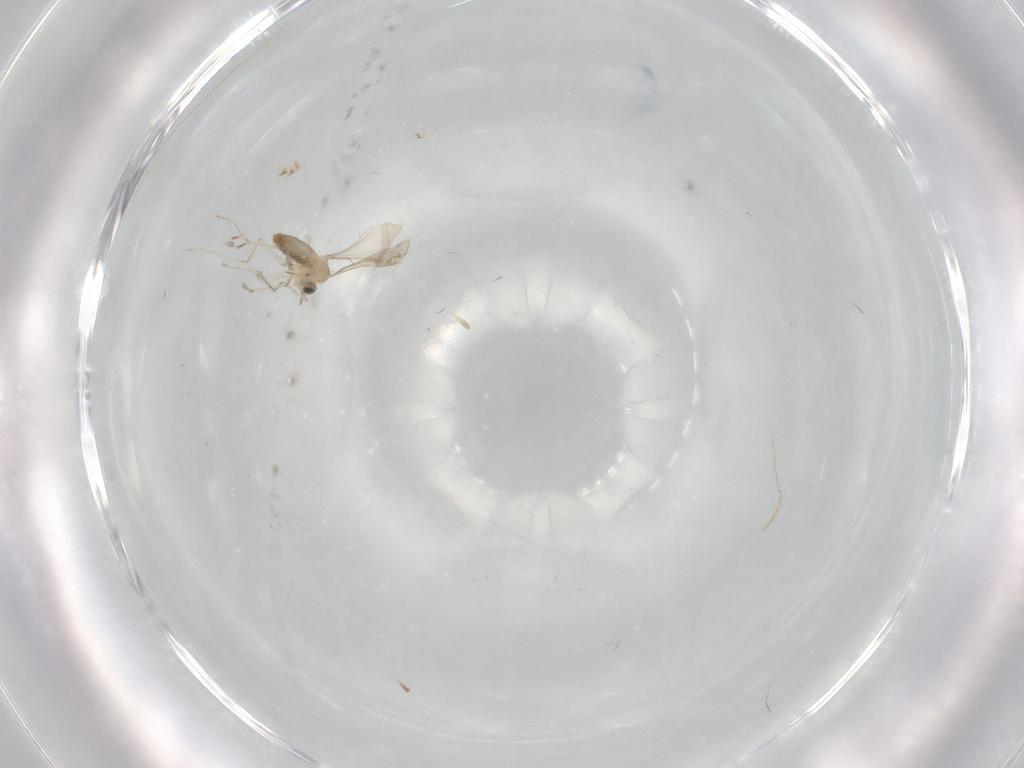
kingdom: Animalia
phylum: Arthropoda
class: Insecta
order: Diptera
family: Cecidomyiidae
